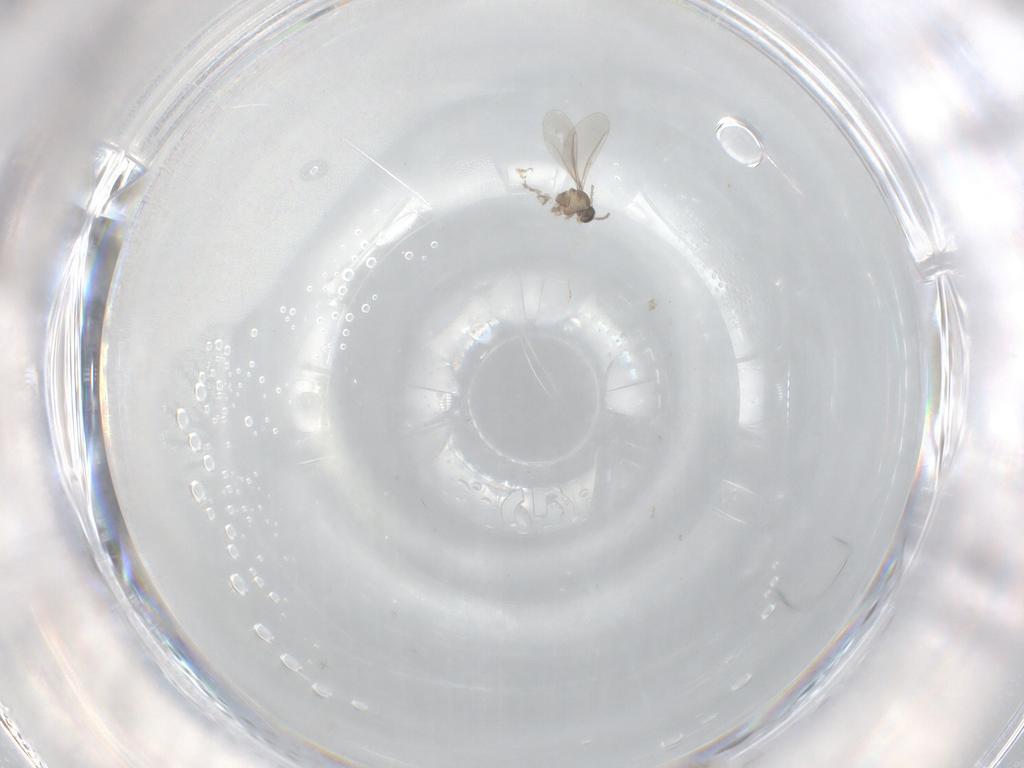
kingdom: Animalia
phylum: Arthropoda
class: Insecta
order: Diptera
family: Cecidomyiidae
